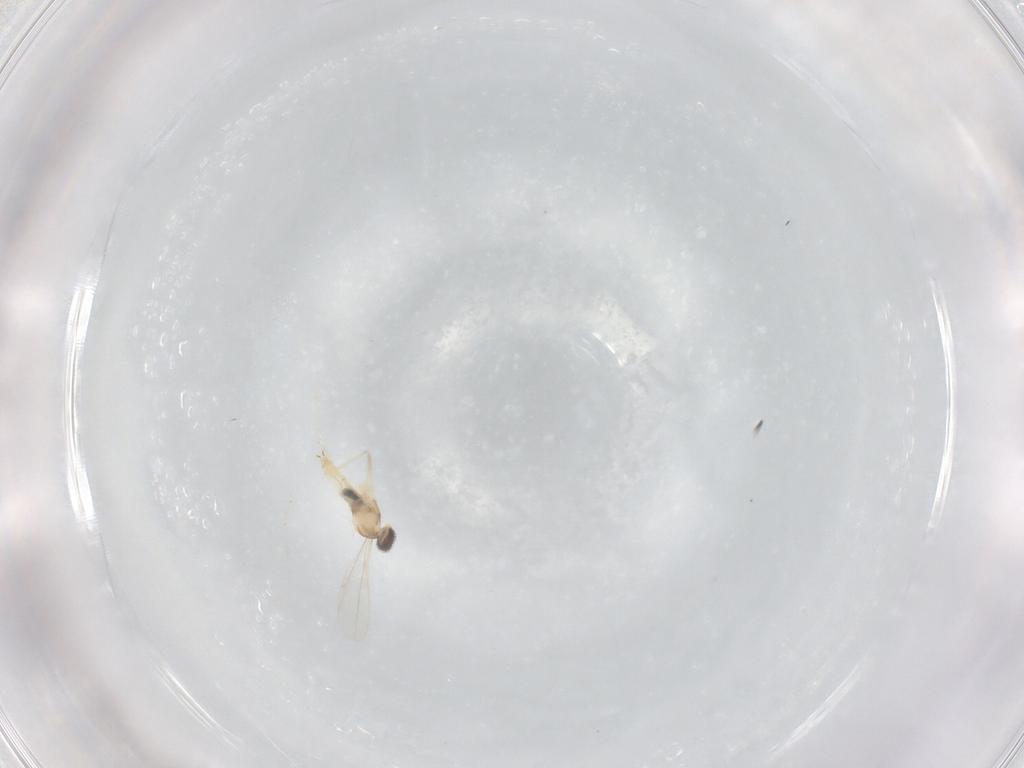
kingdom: Animalia
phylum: Arthropoda
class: Insecta
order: Diptera
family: Cecidomyiidae
